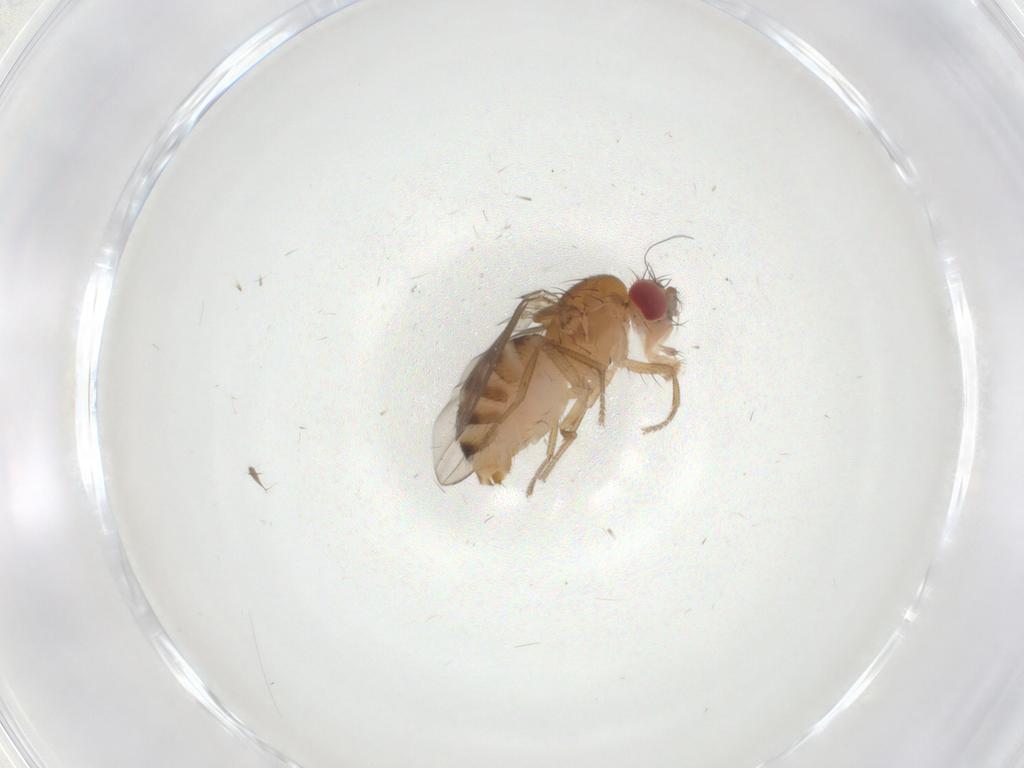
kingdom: Animalia
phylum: Arthropoda
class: Insecta
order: Diptera
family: Drosophilidae
